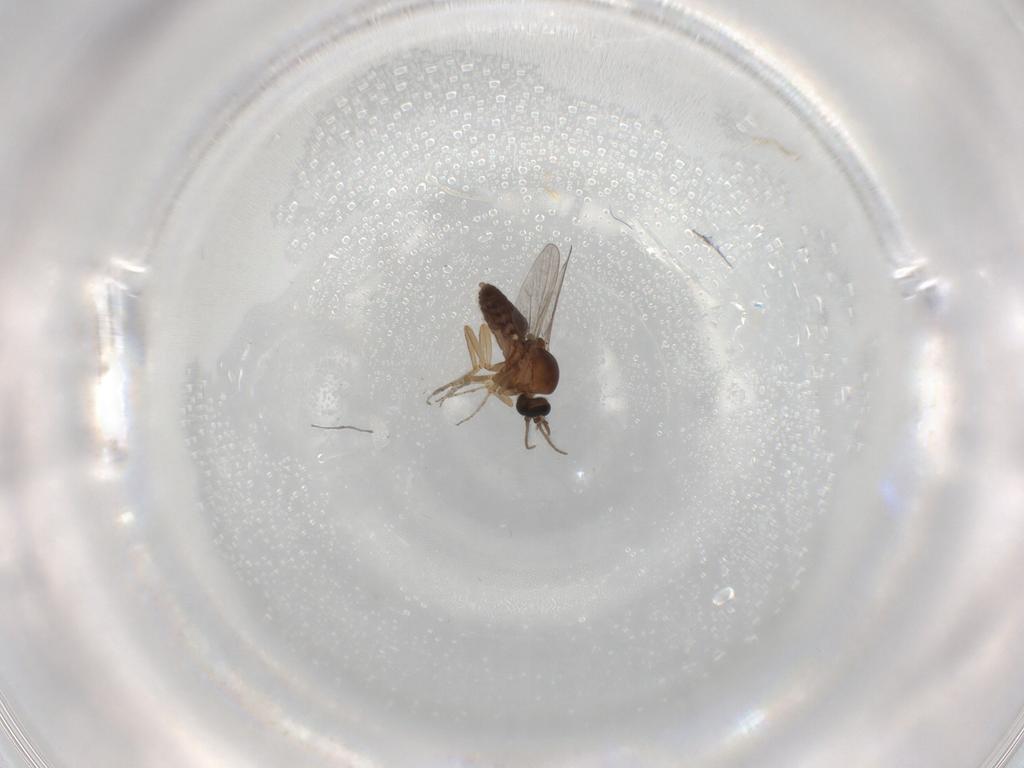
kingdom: Animalia
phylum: Arthropoda
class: Insecta
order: Diptera
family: Ceratopogonidae
